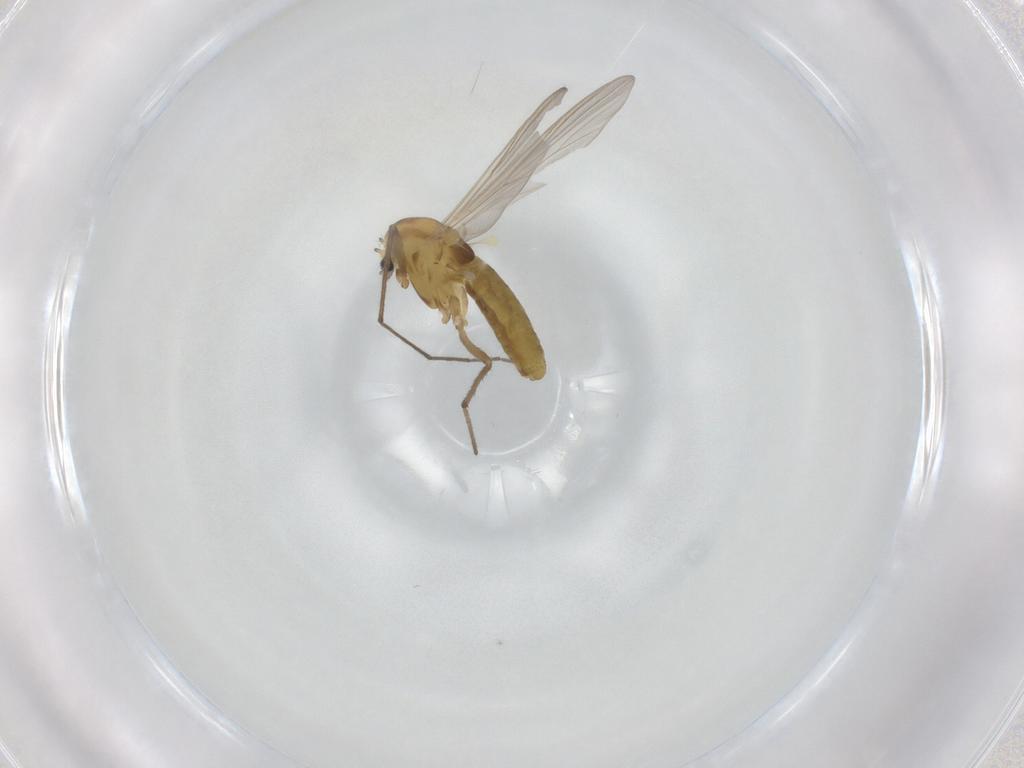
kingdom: Animalia
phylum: Arthropoda
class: Insecta
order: Diptera
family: Chironomidae
